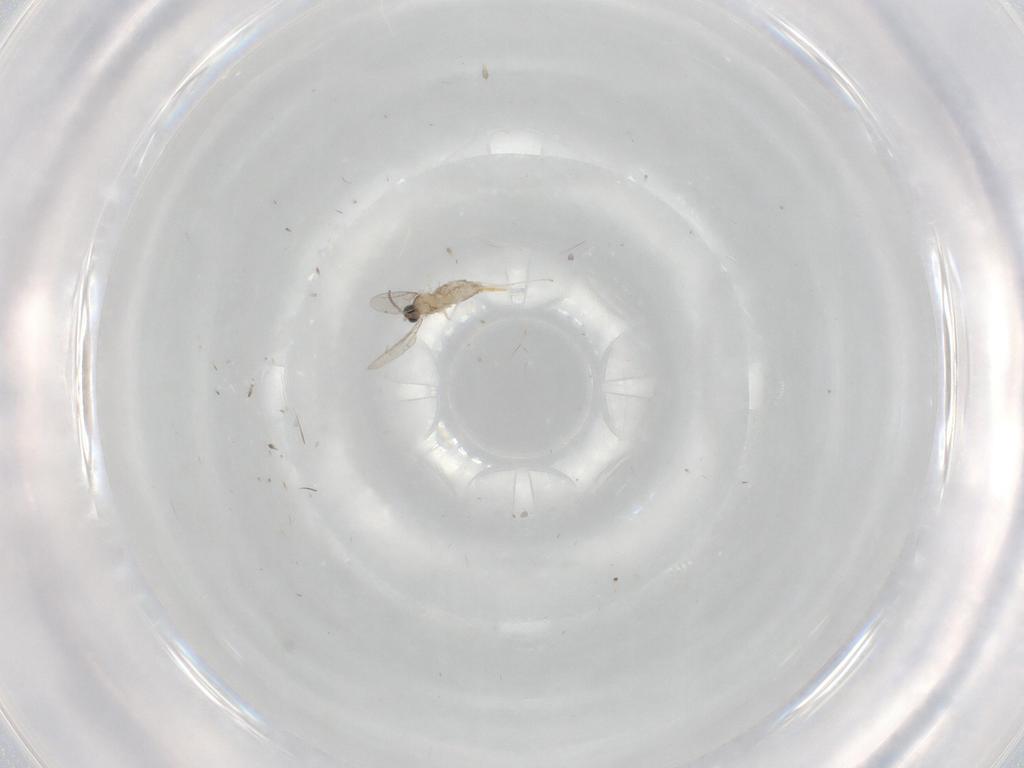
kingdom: Animalia
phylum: Arthropoda
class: Insecta
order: Diptera
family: Cecidomyiidae
